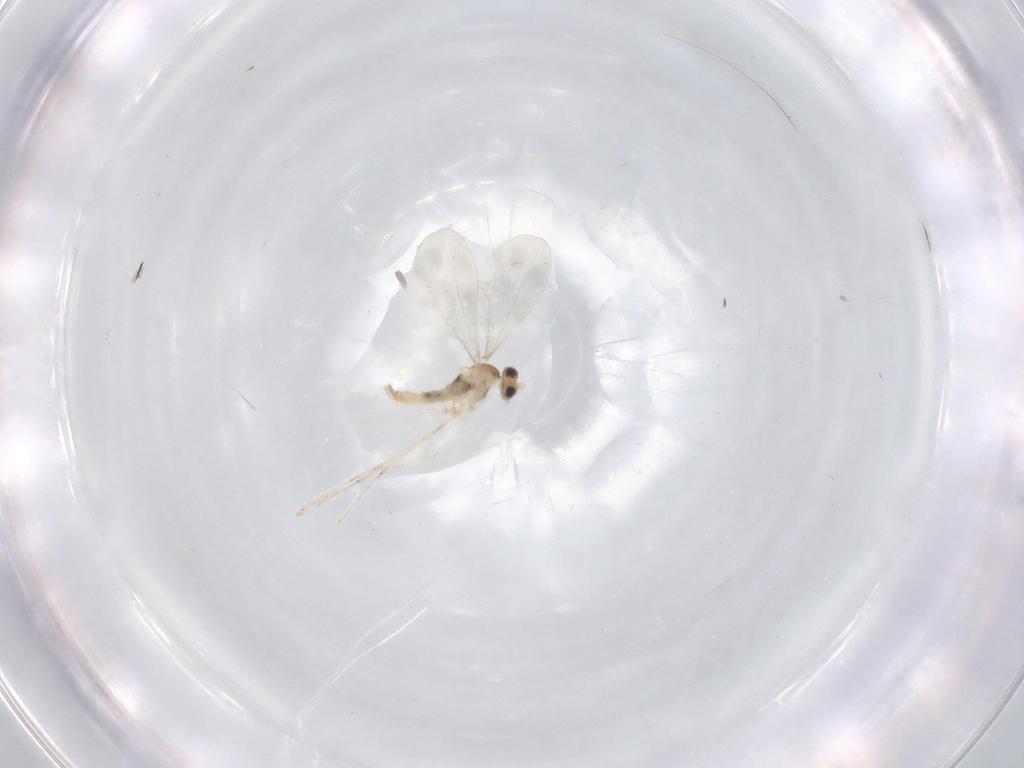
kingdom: Animalia
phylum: Arthropoda
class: Insecta
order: Diptera
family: Cecidomyiidae
